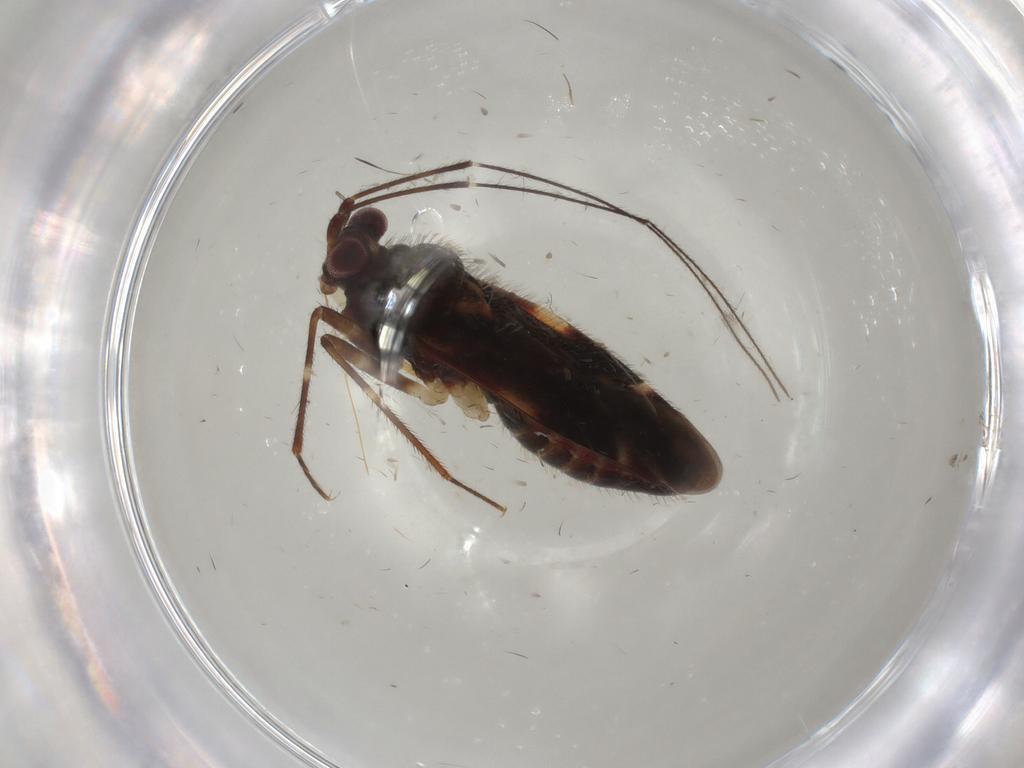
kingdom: Animalia
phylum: Arthropoda
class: Insecta
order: Hemiptera
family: Miridae
